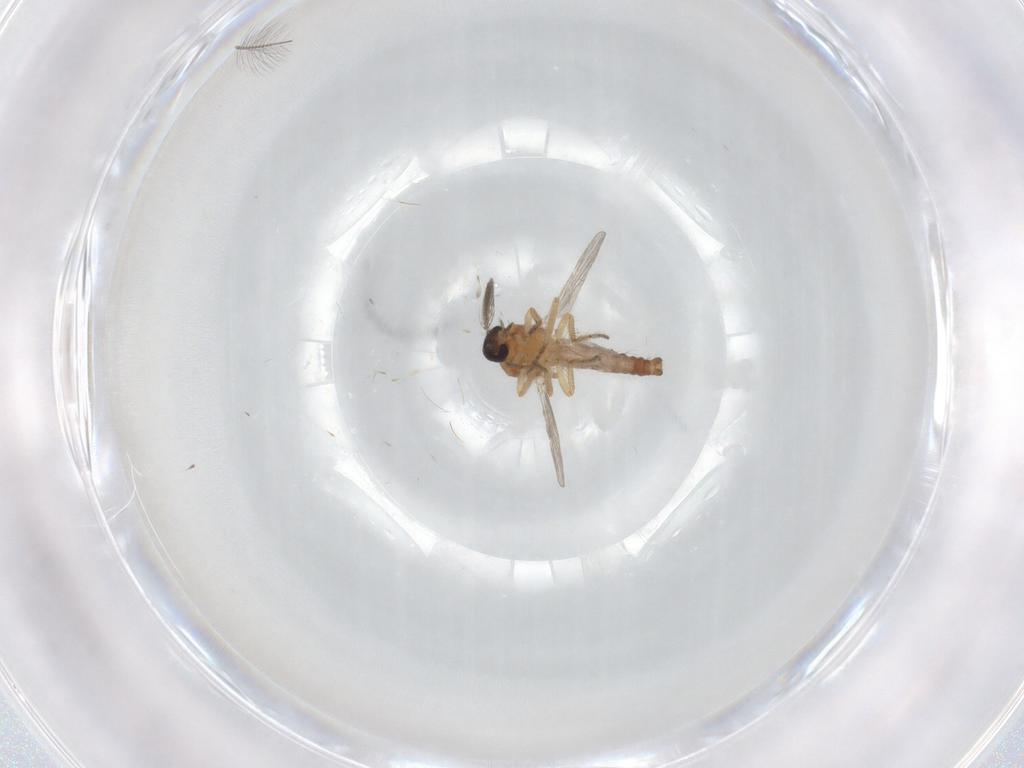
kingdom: Animalia
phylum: Arthropoda
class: Insecta
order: Diptera
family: Ceratopogonidae
